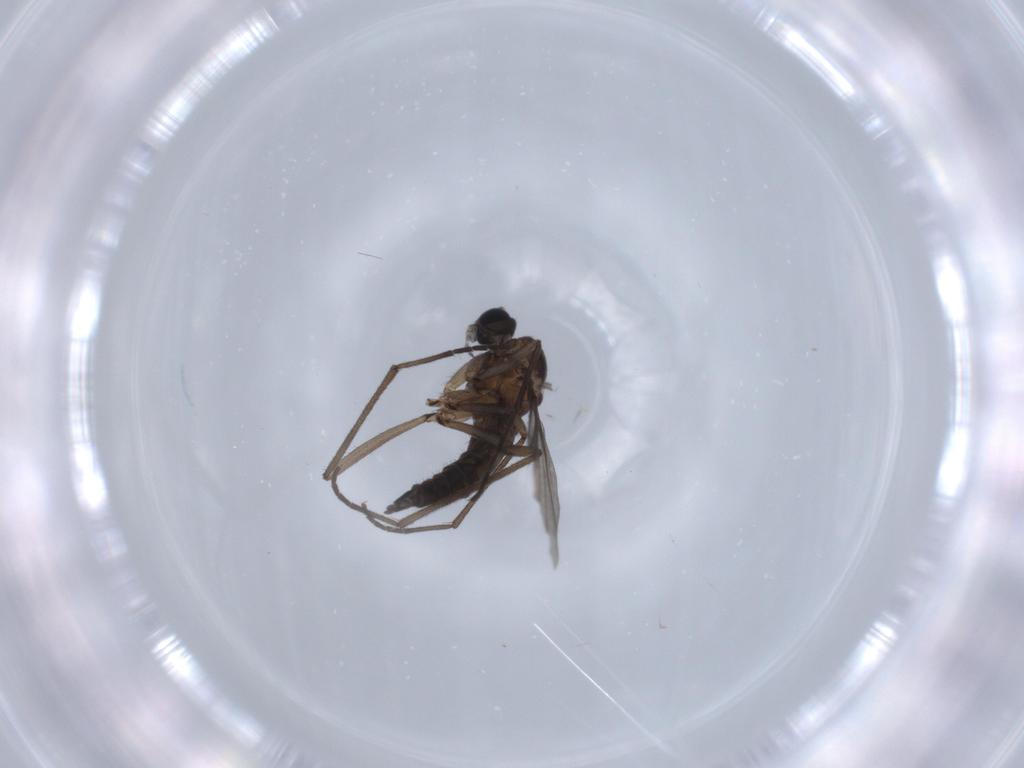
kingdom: Animalia
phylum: Arthropoda
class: Insecta
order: Diptera
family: Sciaridae
